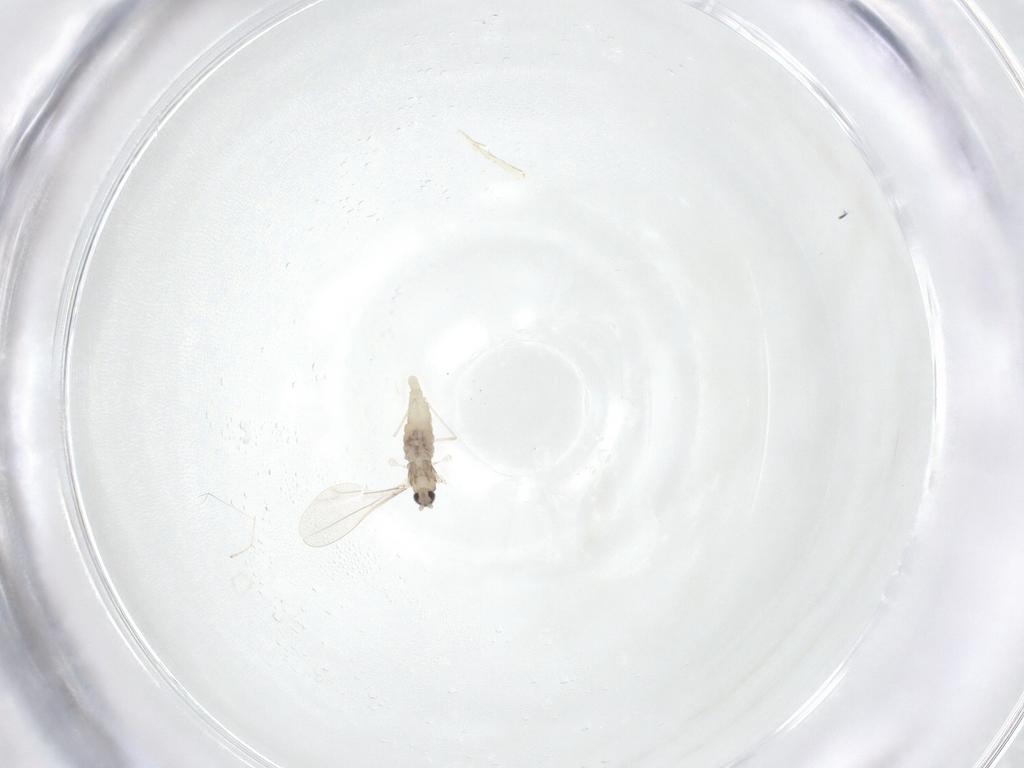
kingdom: Animalia
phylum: Arthropoda
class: Insecta
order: Diptera
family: Cecidomyiidae
